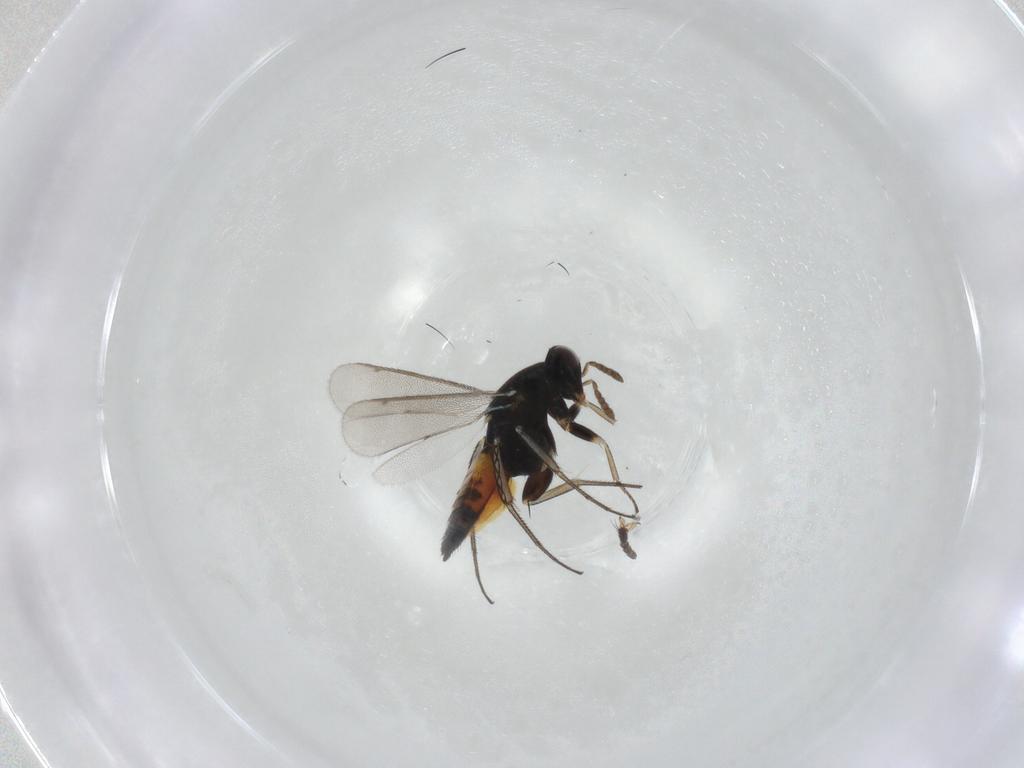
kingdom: Animalia
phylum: Arthropoda
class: Insecta
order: Hymenoptera
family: Eulophidae
